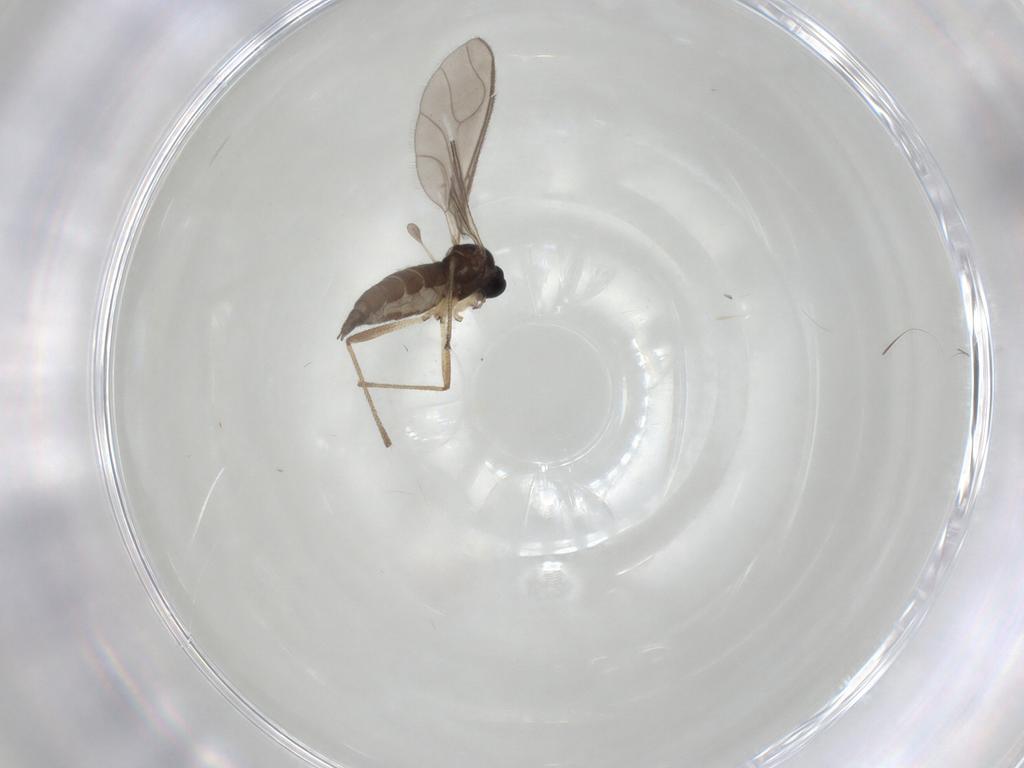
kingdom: Animalia
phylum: Arthropoda
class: Insecta
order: Diptera
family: Sciaridae
